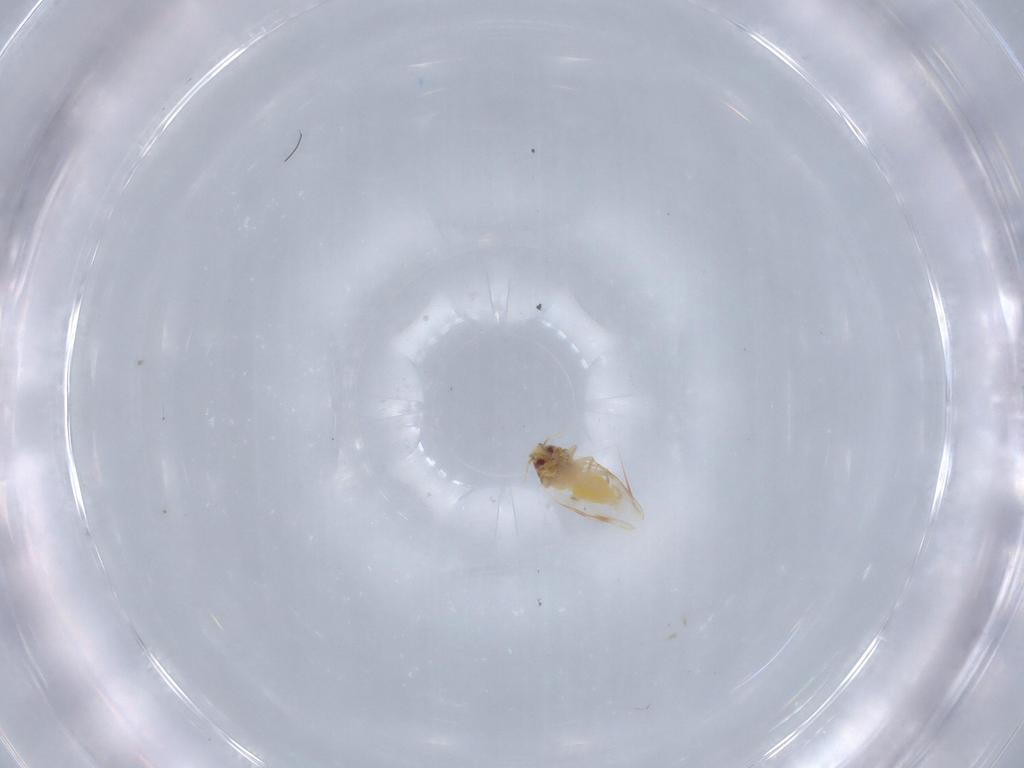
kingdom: Animalia
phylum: Arthropoda
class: Insecta
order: Hemiptera
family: Aleyrodidae
